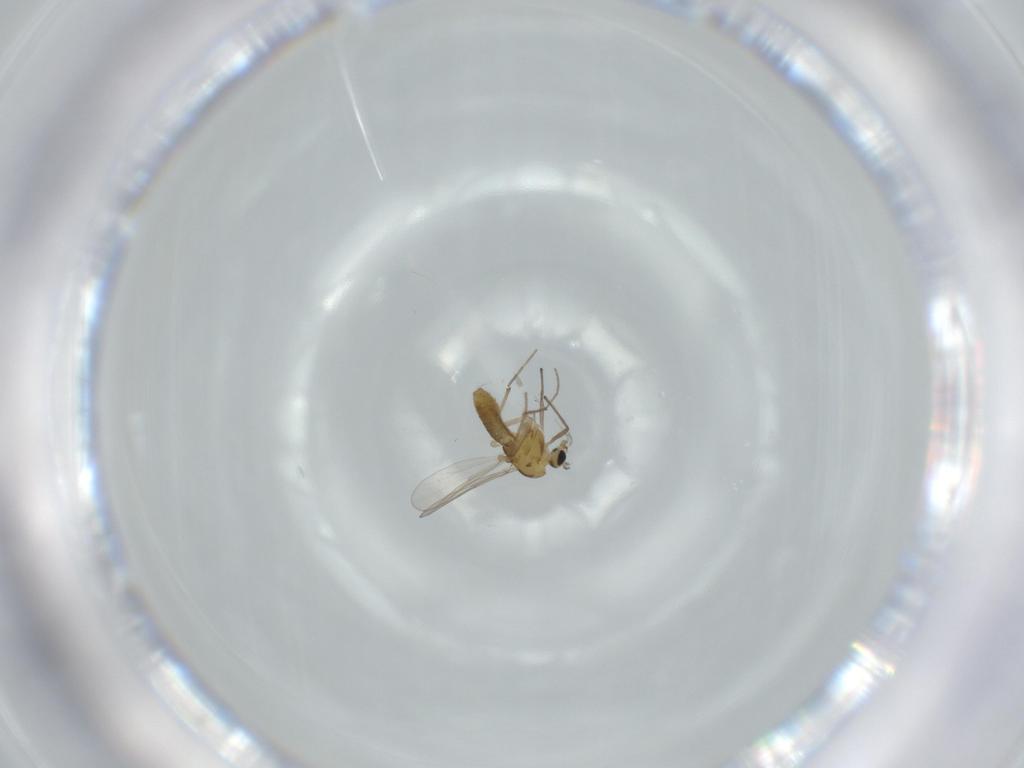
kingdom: Animalia
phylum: Arthropoda
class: Insecta
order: Diptera
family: Chironomidae
